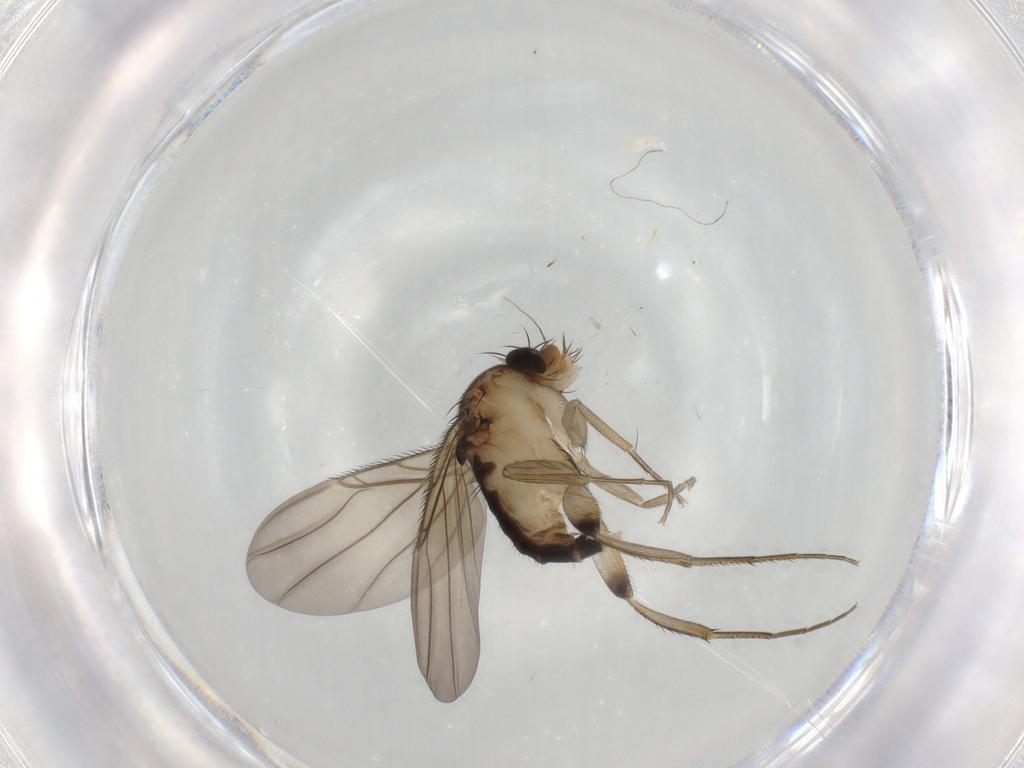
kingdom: Animalia
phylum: Arthropoda
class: Insecta
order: Diptera
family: Phoridae
